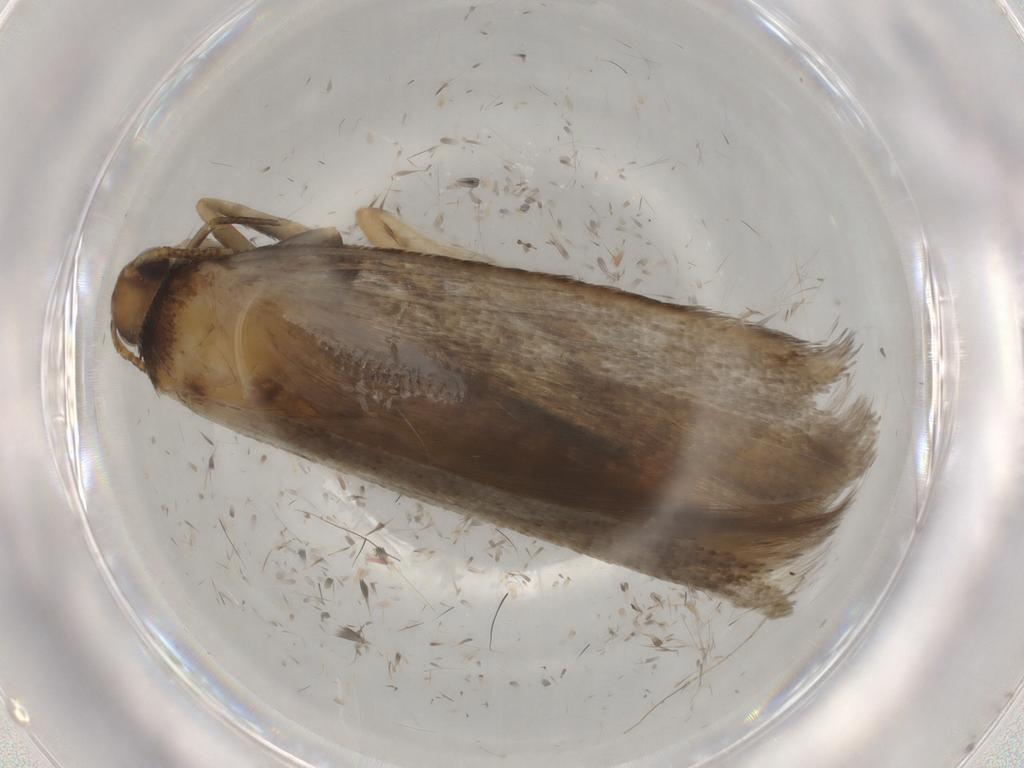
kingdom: Animalia
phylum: Arthropoda
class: Insecta
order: Lepidoptera
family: Gelechiidae
